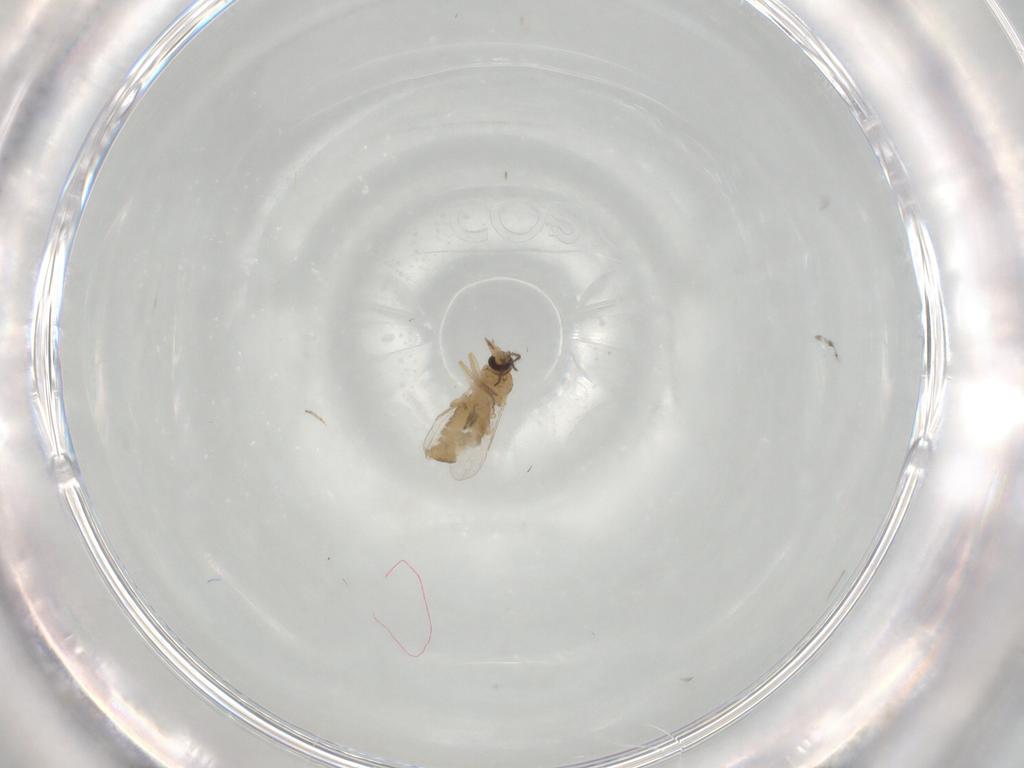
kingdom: Animalia
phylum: Arthropoda
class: Insecta
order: Diptera
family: Ceratopogonidae
